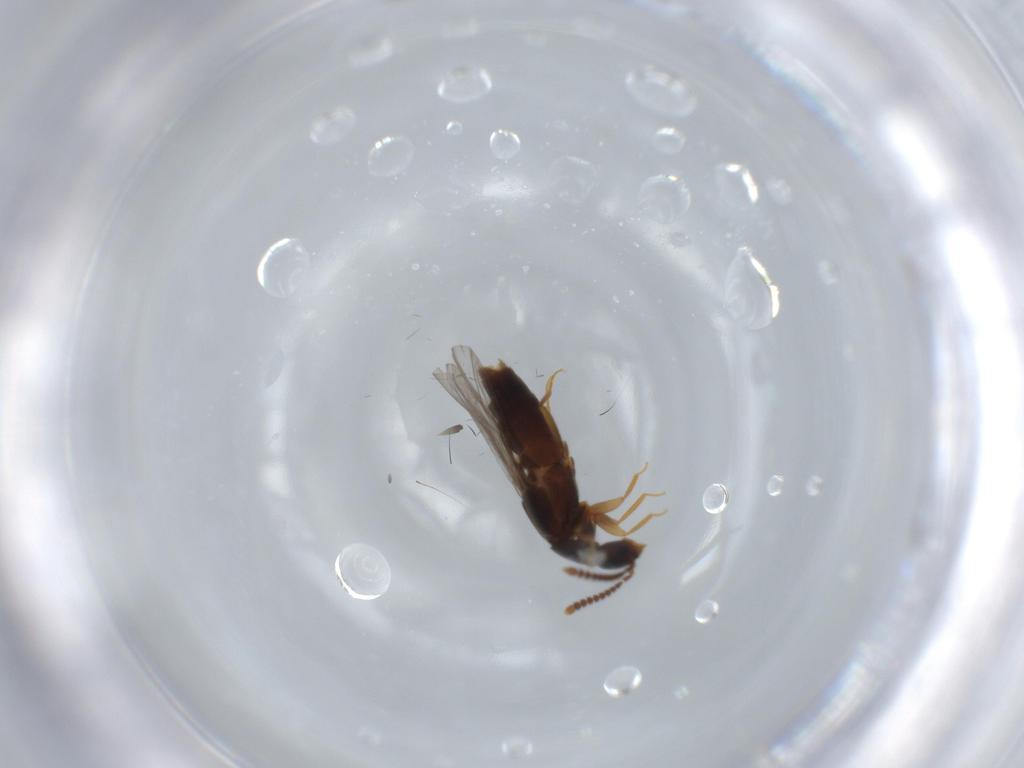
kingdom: Animalia
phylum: Arthropoda
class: Insecta
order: Coleoptera
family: Staphylinidae
